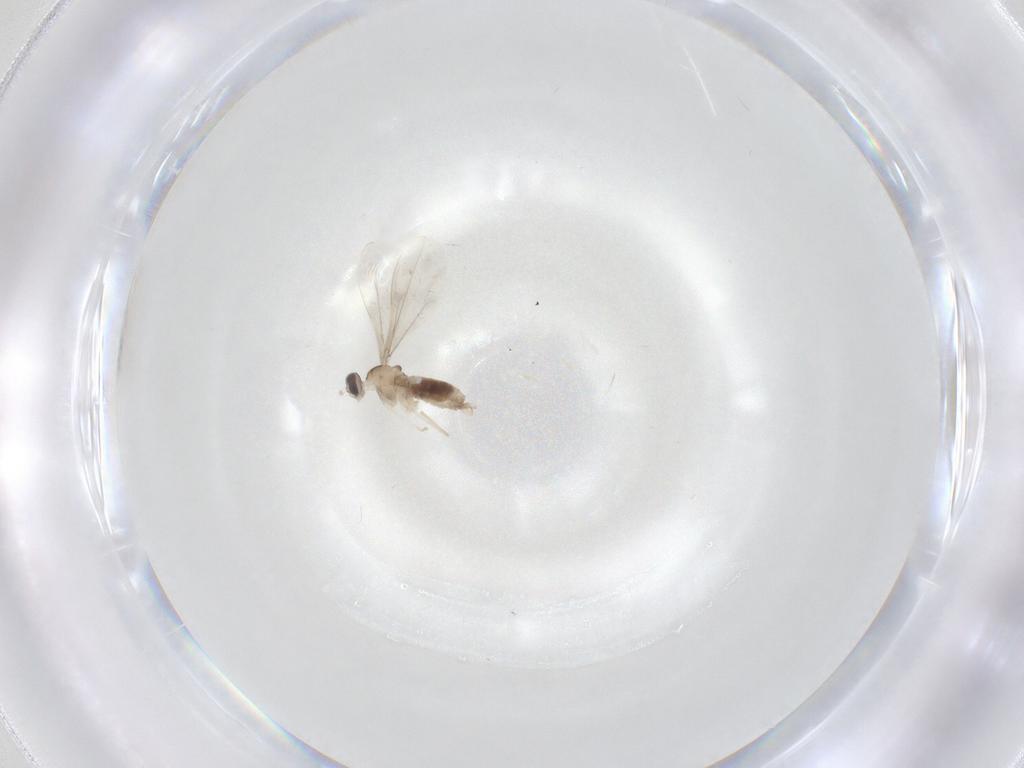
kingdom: Animalia
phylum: Arthropoda
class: Insecta
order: Diptera
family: Cecidomyiidae
